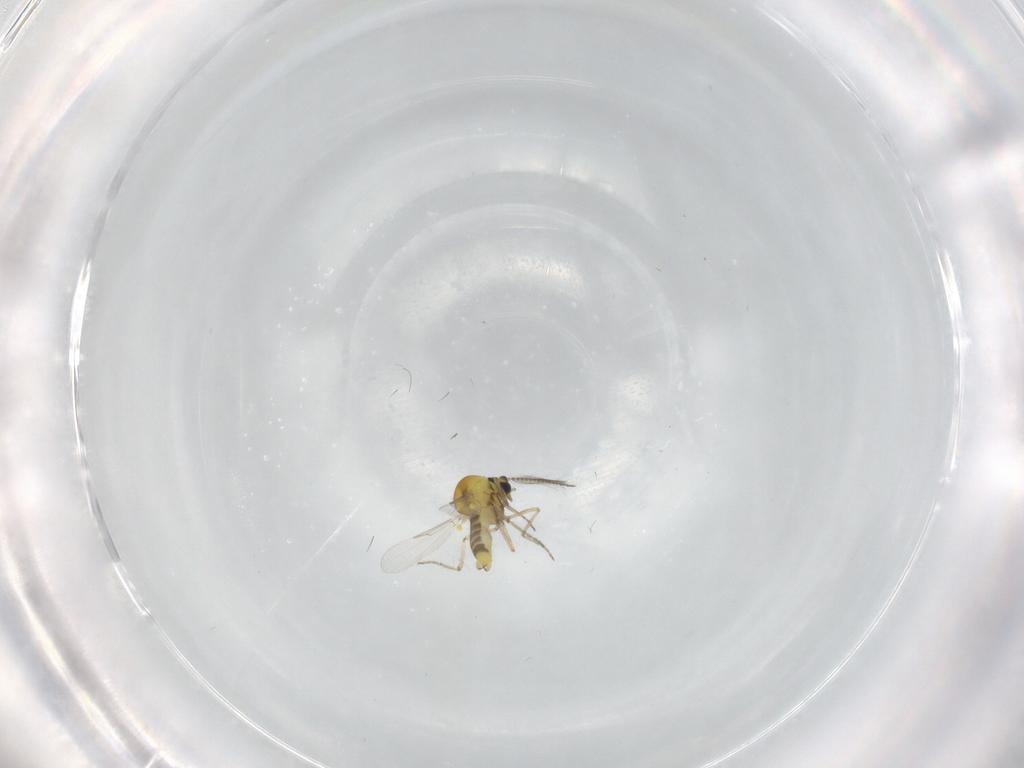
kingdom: Animalia
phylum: Arthropoda
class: Insecta
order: Diptera
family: Ceratopogonidae
